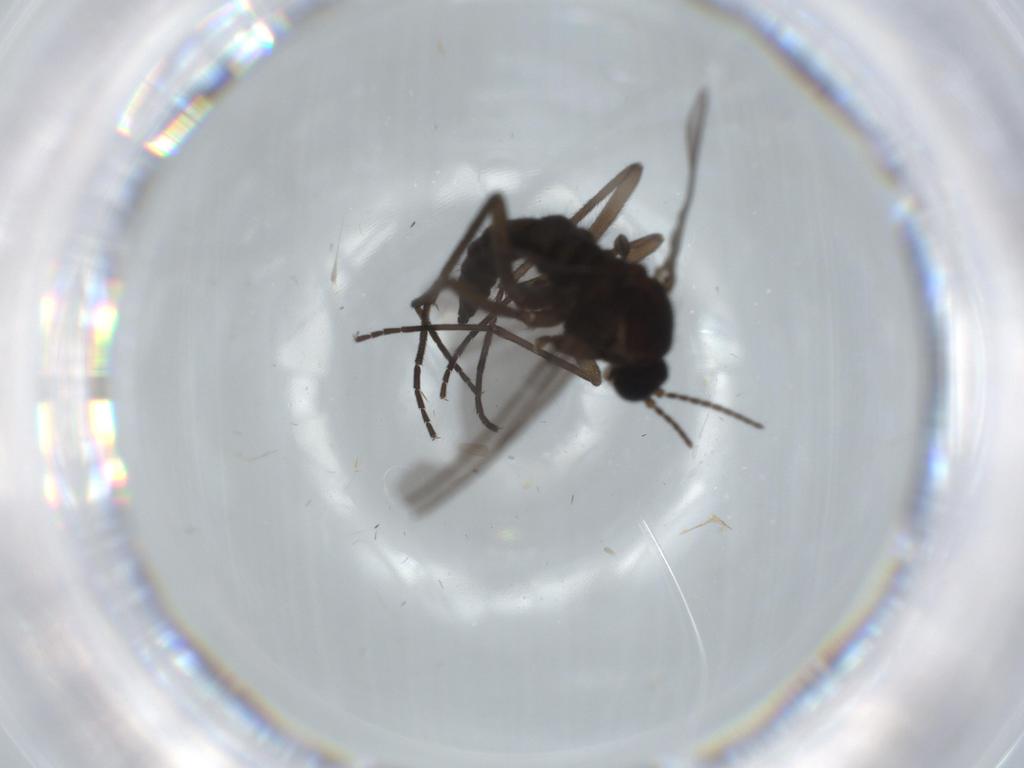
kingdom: Animalia
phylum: Arthropoda
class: Insecta
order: Diptera
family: Sciaridae
